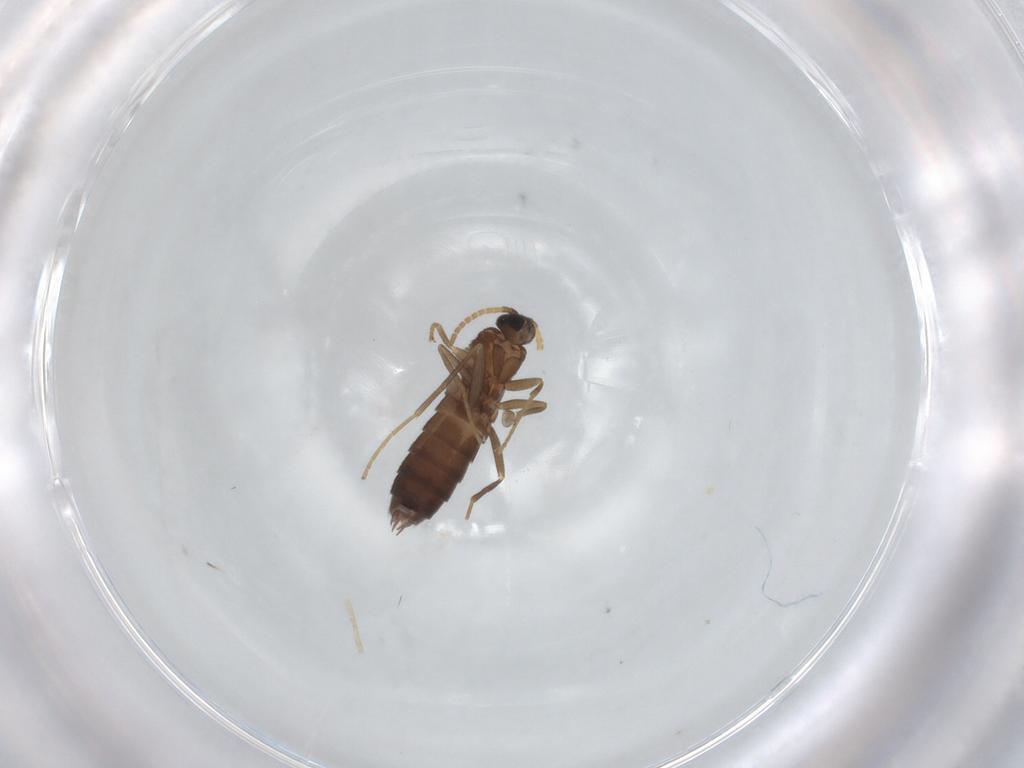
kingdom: Animalia
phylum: Arthropoda
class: Insecta
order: Diptera
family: Scatopsidae
